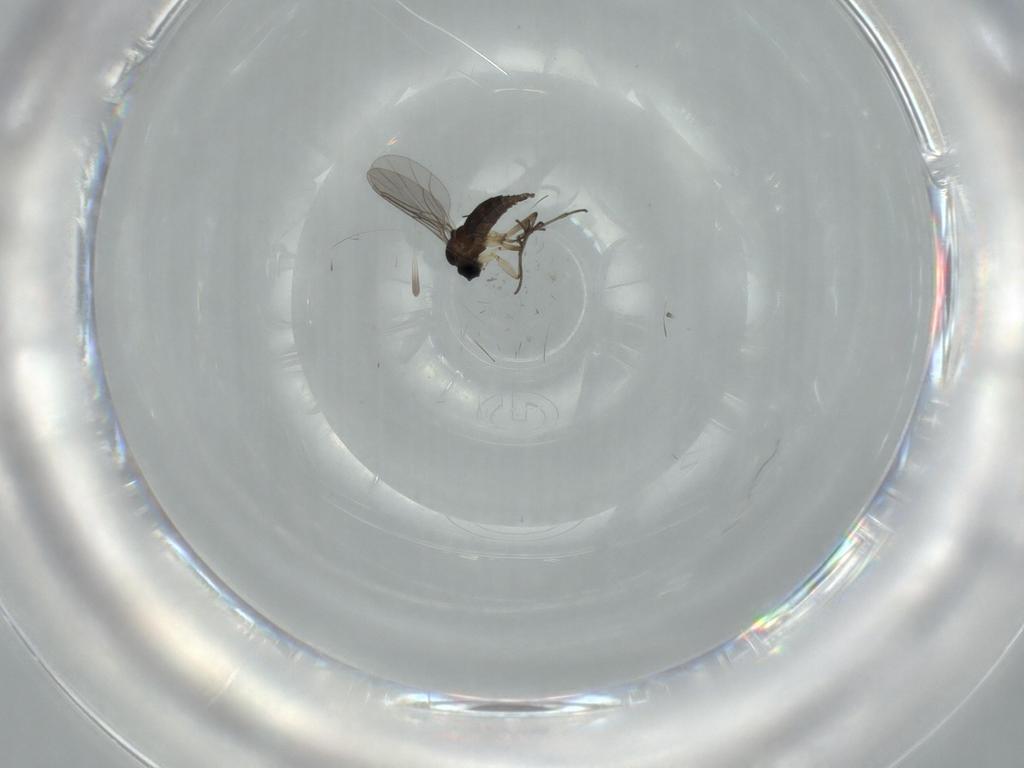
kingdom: Animalia
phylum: Arthropoda
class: Insecta
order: Diptera
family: Sciaridae
